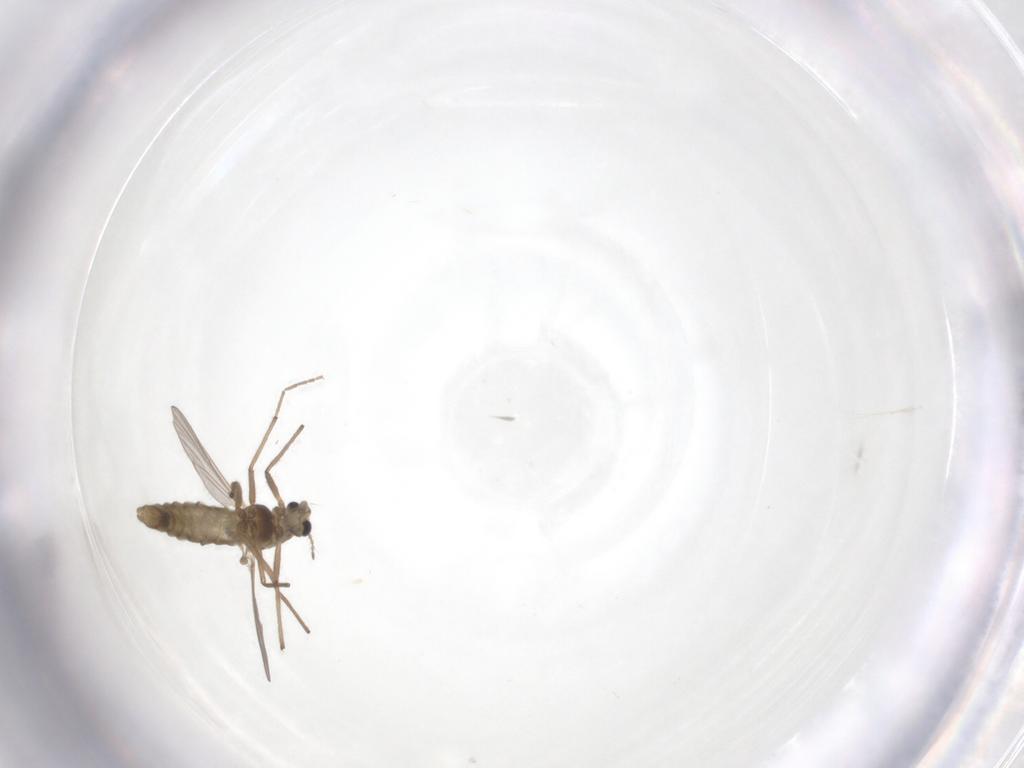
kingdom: Animalia
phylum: Arthropoda
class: Insecta
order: Diptera
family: Chironomidae
